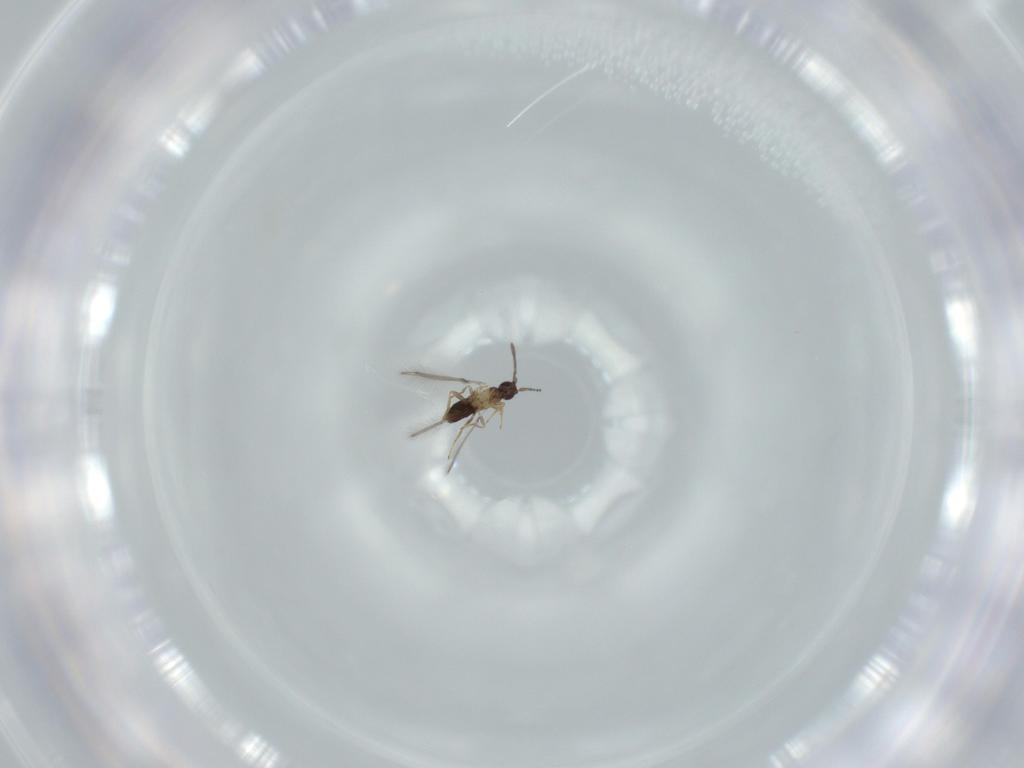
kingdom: Animalia
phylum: Arthropoda
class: Insecta
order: Hymenoptera
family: Mymaridae
